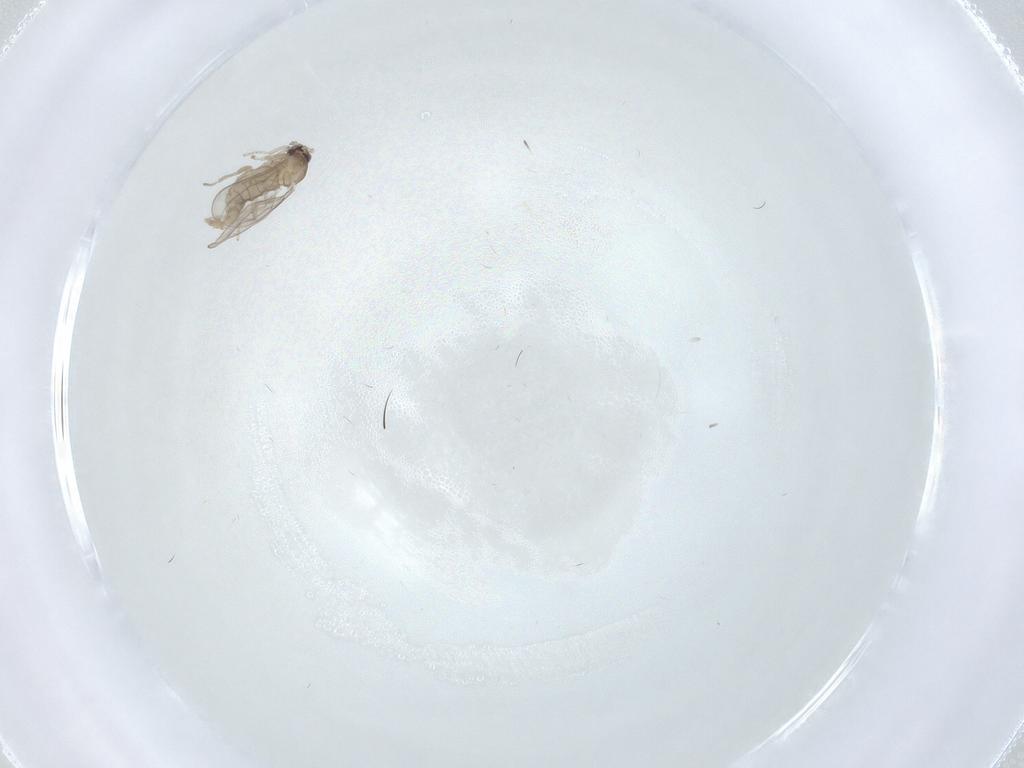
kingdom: Animalia
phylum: Arthropoda
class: Insecta
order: Diptera
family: Cecidomyiidae
